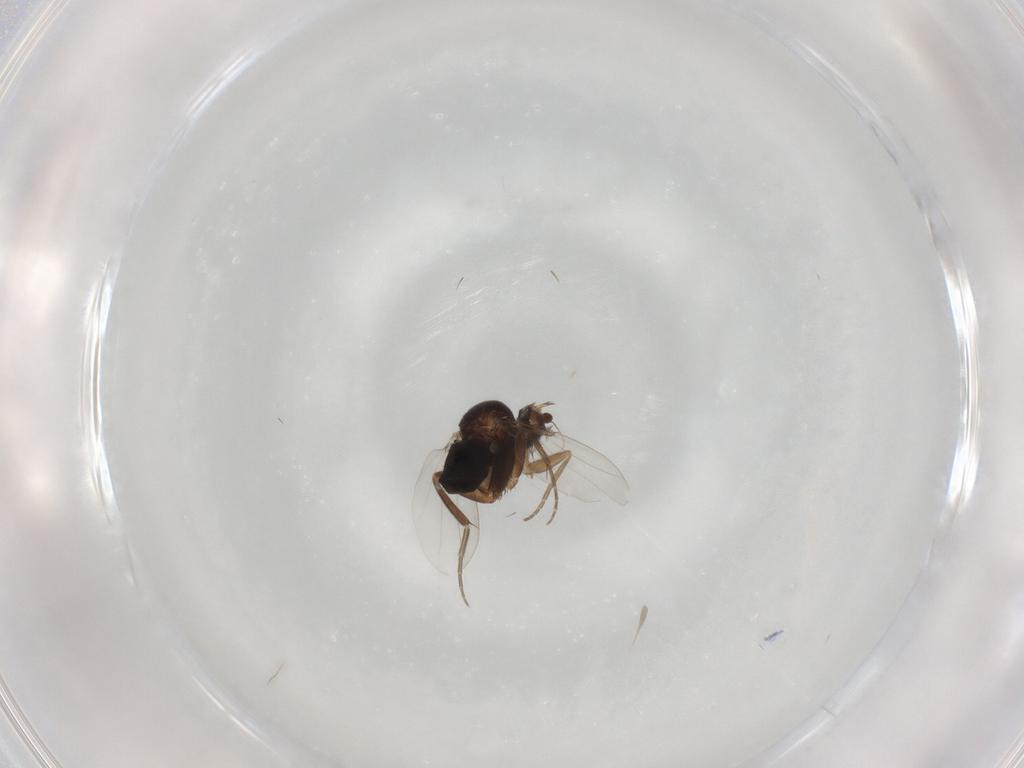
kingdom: Animalia
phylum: Arthropoda
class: Insecta
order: Diptera
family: Phoridae
